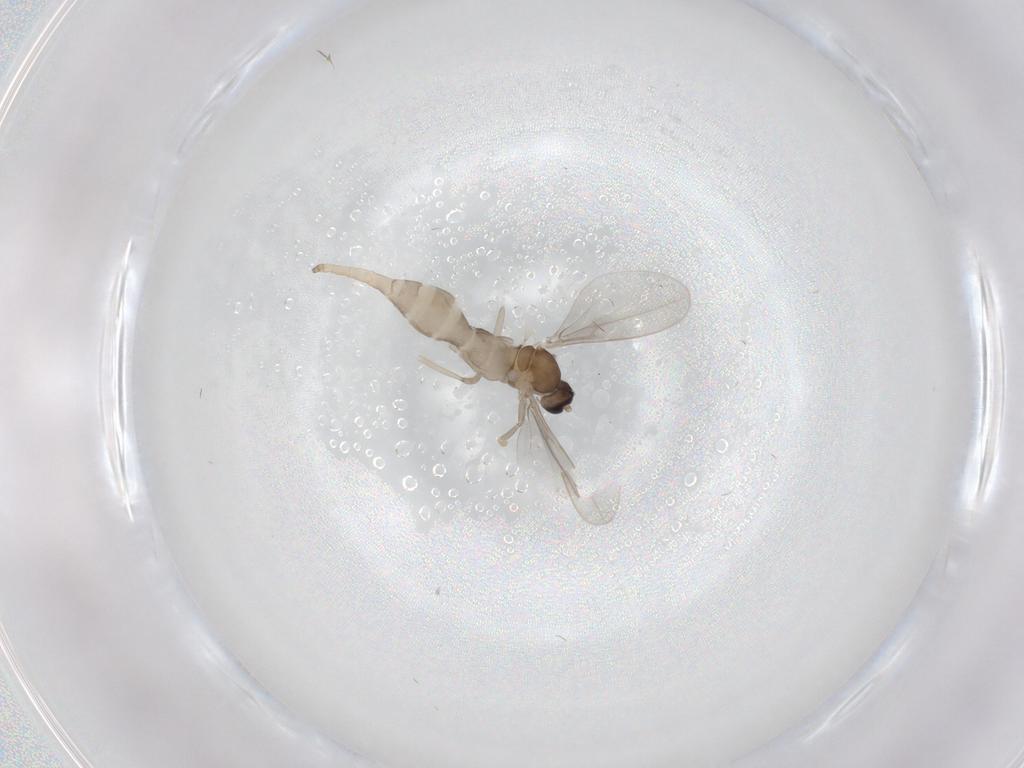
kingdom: Animalia
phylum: Arthropoda
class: Insecta
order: Diptera
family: Cecidomyiidae
